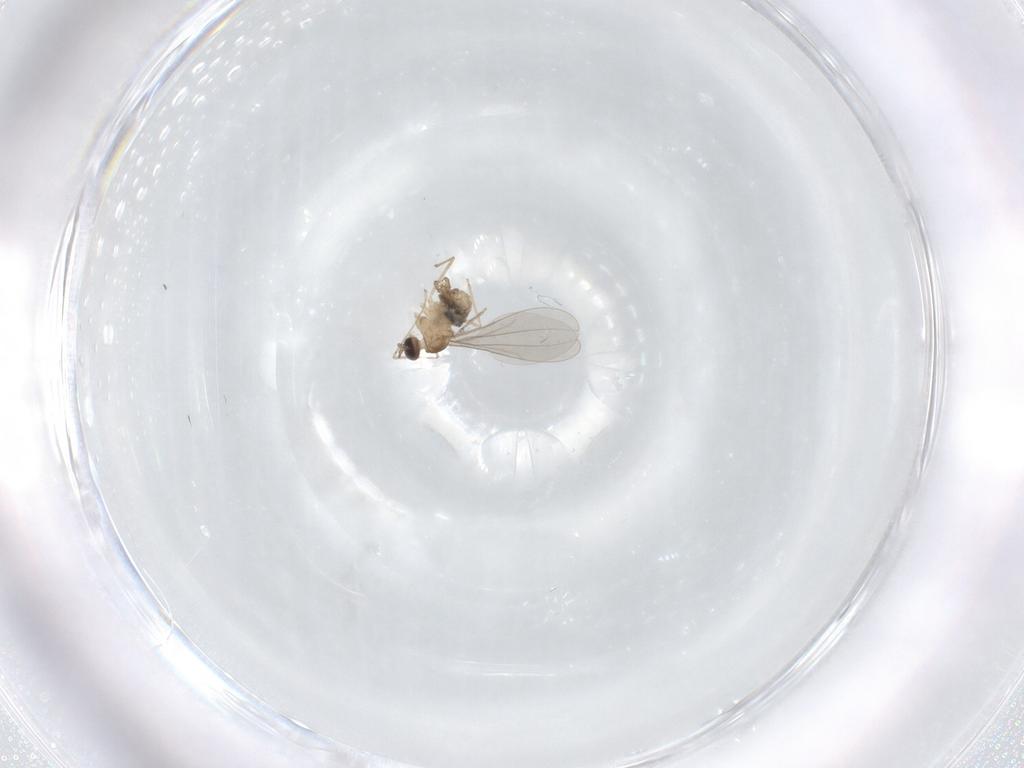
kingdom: Animalia
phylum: Arthropoda
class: Insecta
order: Diptera
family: Cecidomyiidae
